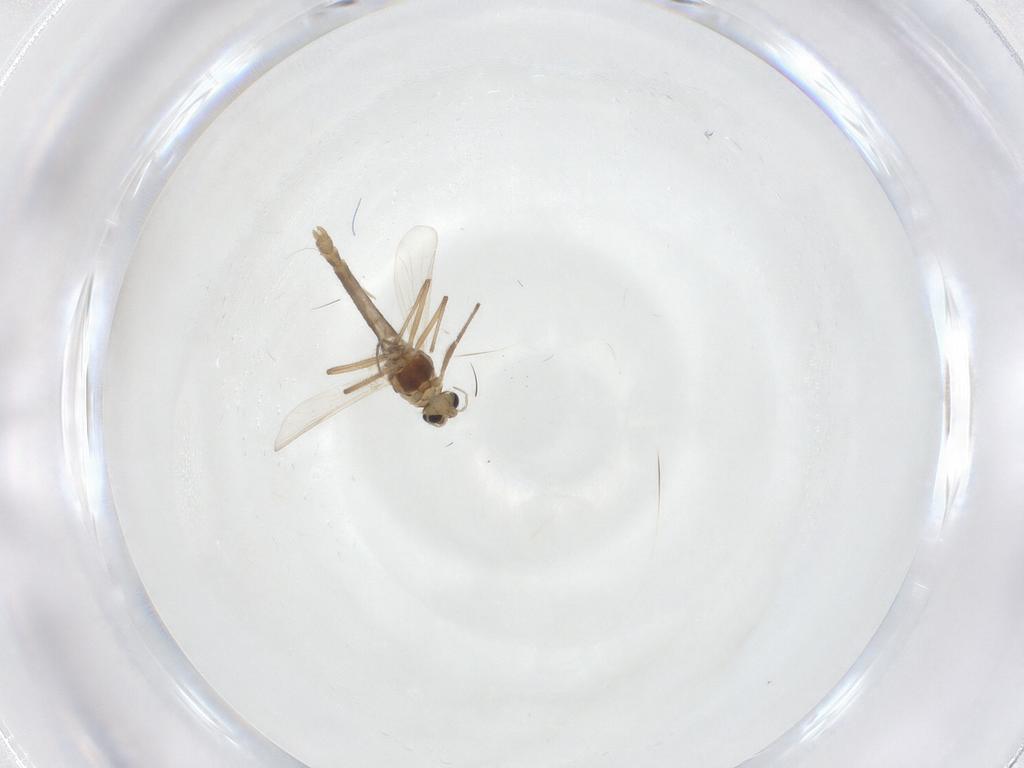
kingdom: Animalia
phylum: Arthropoda
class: Insecta
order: Diptera
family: Chironomidae
